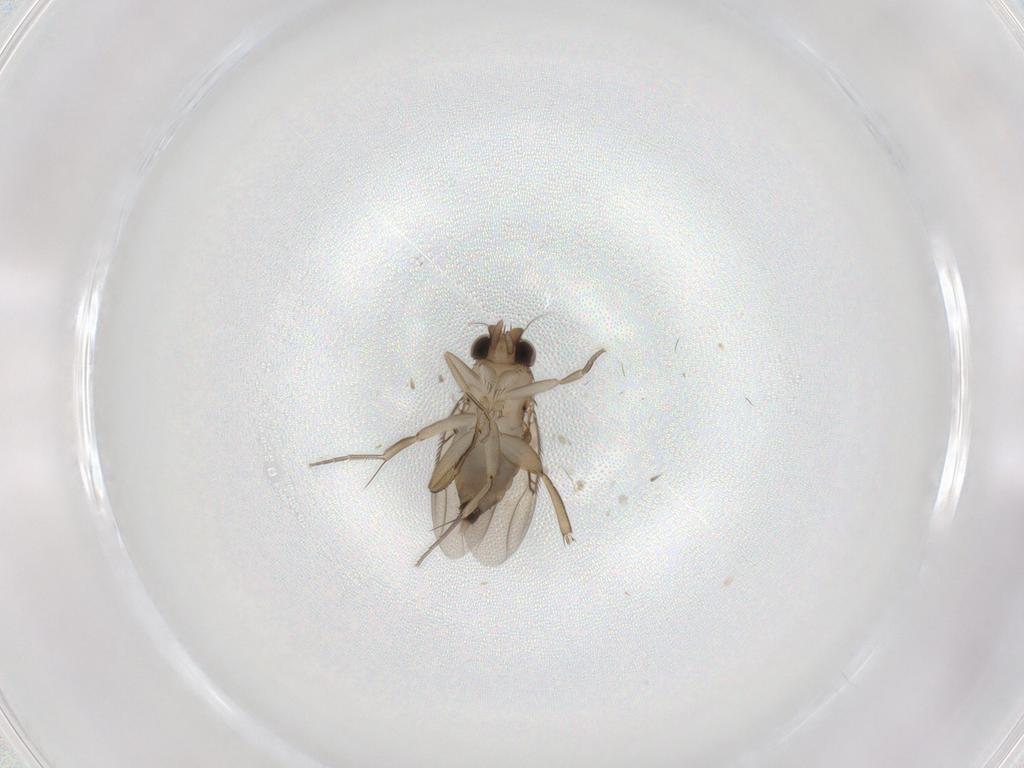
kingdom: Animalia
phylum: Arthropoda
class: Insecta
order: Diptera
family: Phoridae
